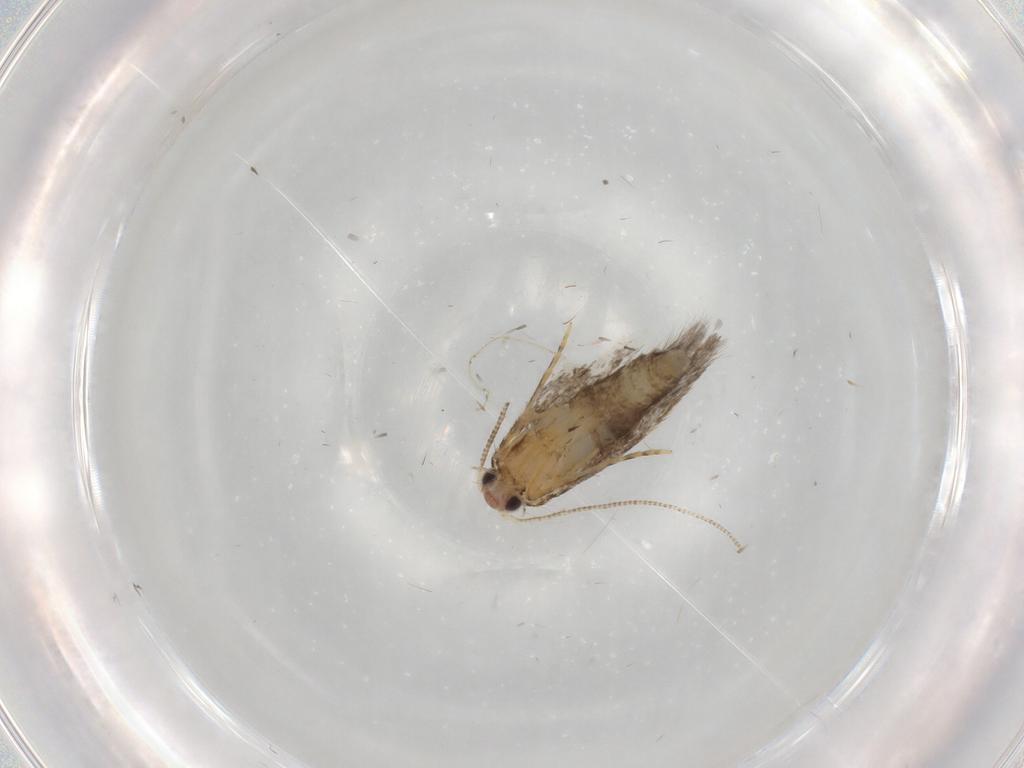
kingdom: Animalia
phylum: Arthropoda
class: Insecta
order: Lepidoptera
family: Tineidae
